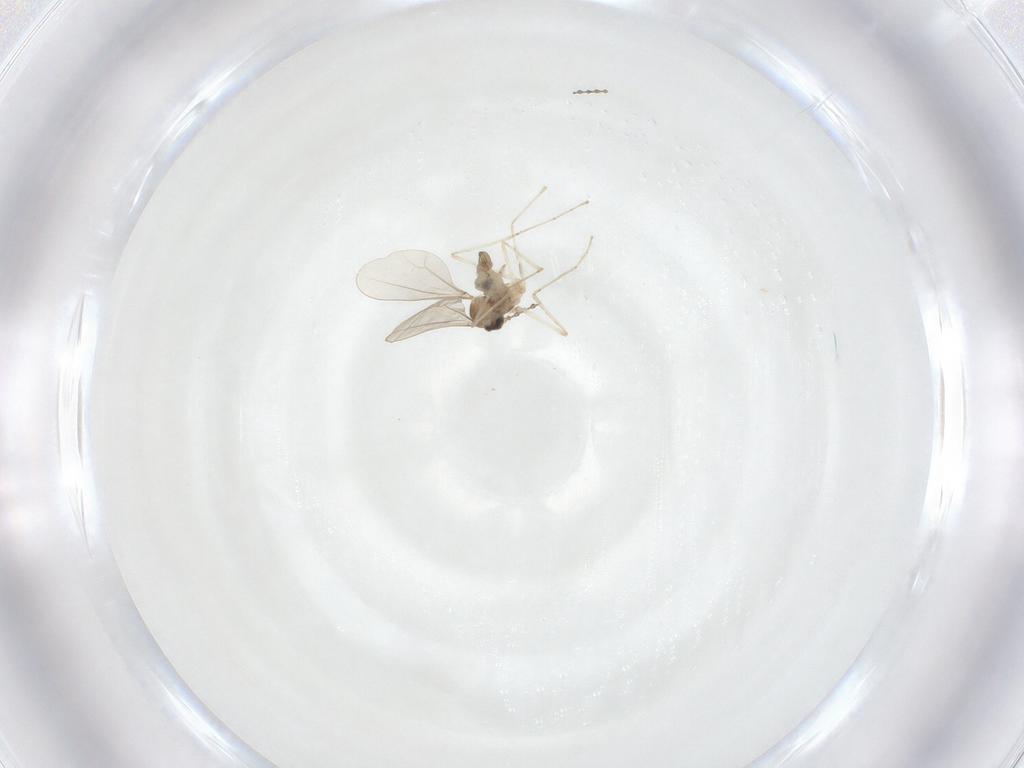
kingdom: Animalia
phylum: Arthropoda
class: Insecta
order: Diptera
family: Cecidomyiidae
